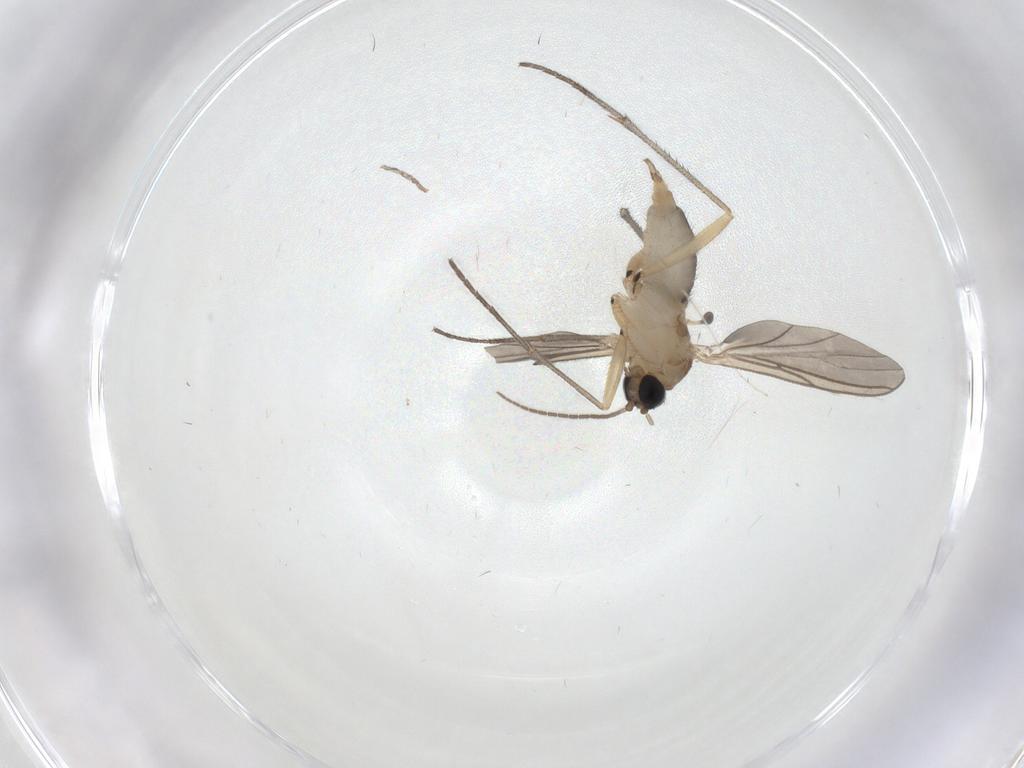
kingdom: Animalia
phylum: Arthropoda
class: Insecta
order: Diptera
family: Sciaridae
